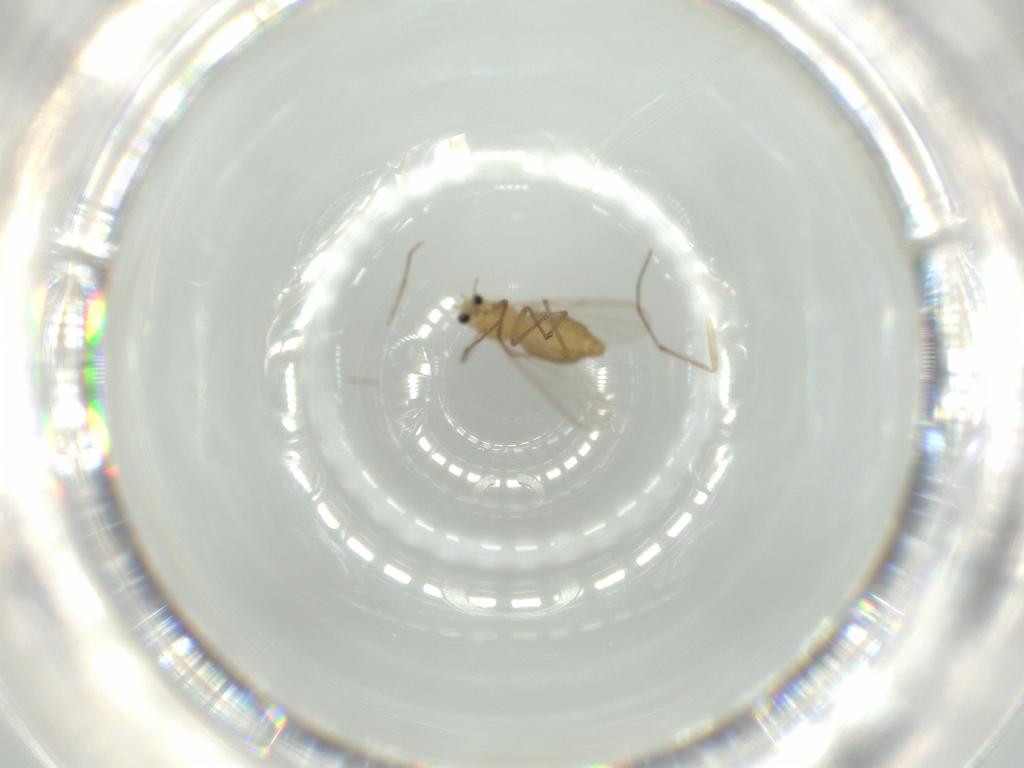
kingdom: Animalia
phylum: Arthropoda
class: Insecta
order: Diptera
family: Chironomidae
